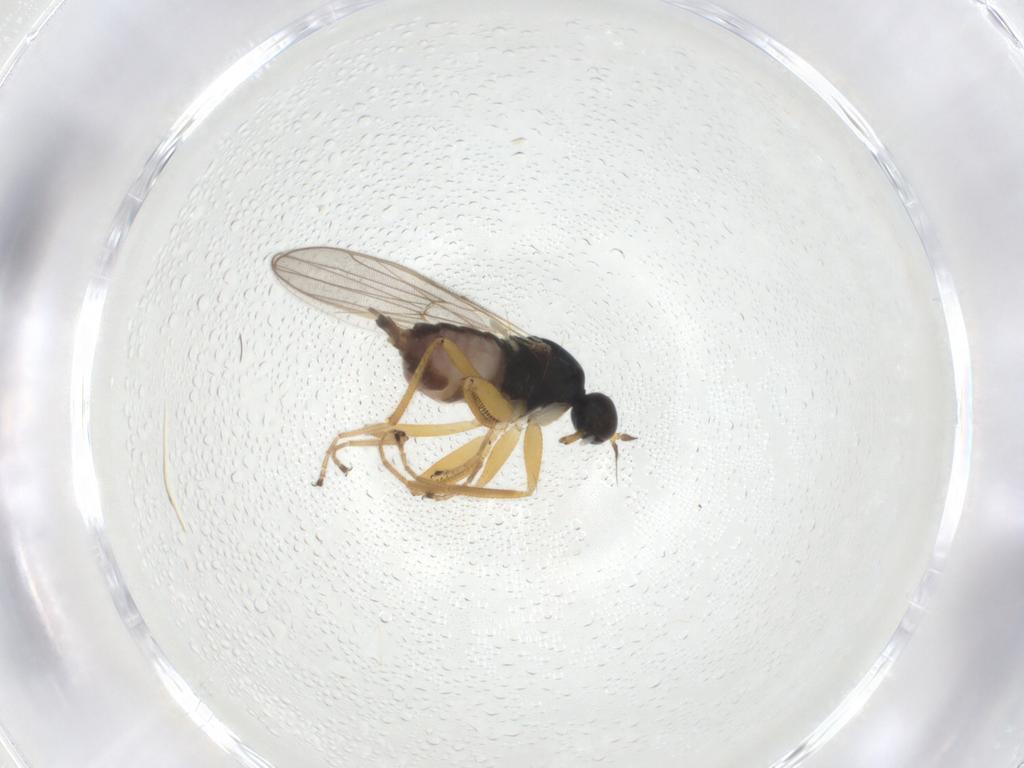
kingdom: Animalia
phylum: Arthropoda
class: Insecta
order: Diptera
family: Hybotidae
